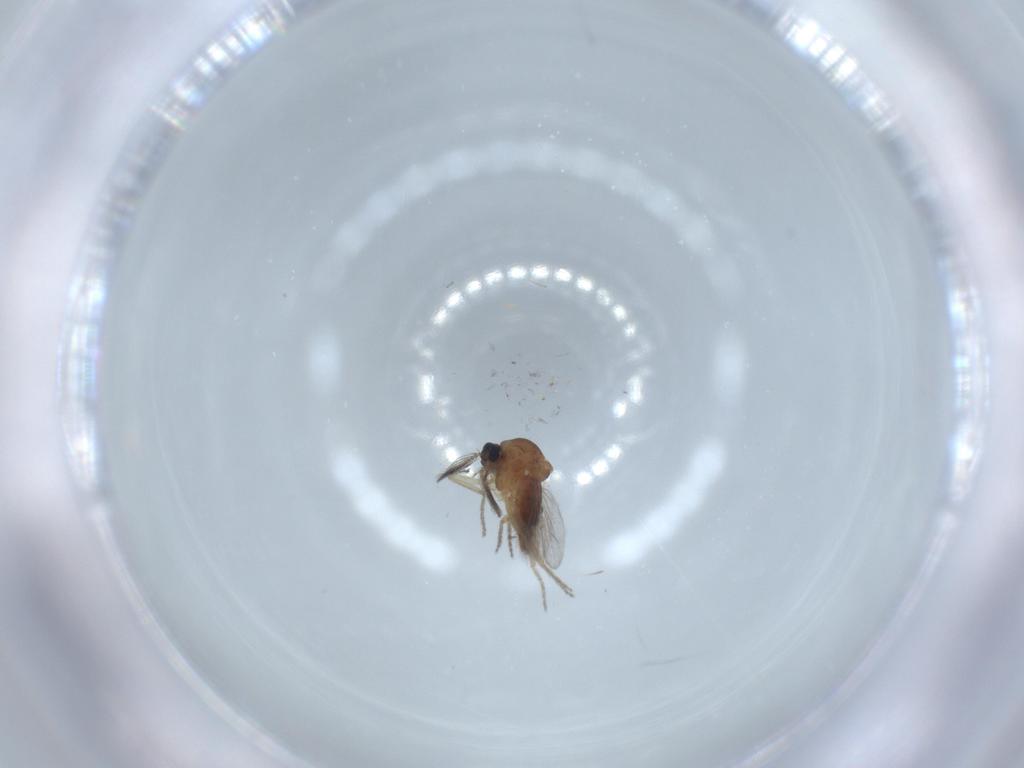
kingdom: Animalia
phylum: Arthropoda
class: Insecta
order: Diptera
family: Ceratopogonidae
